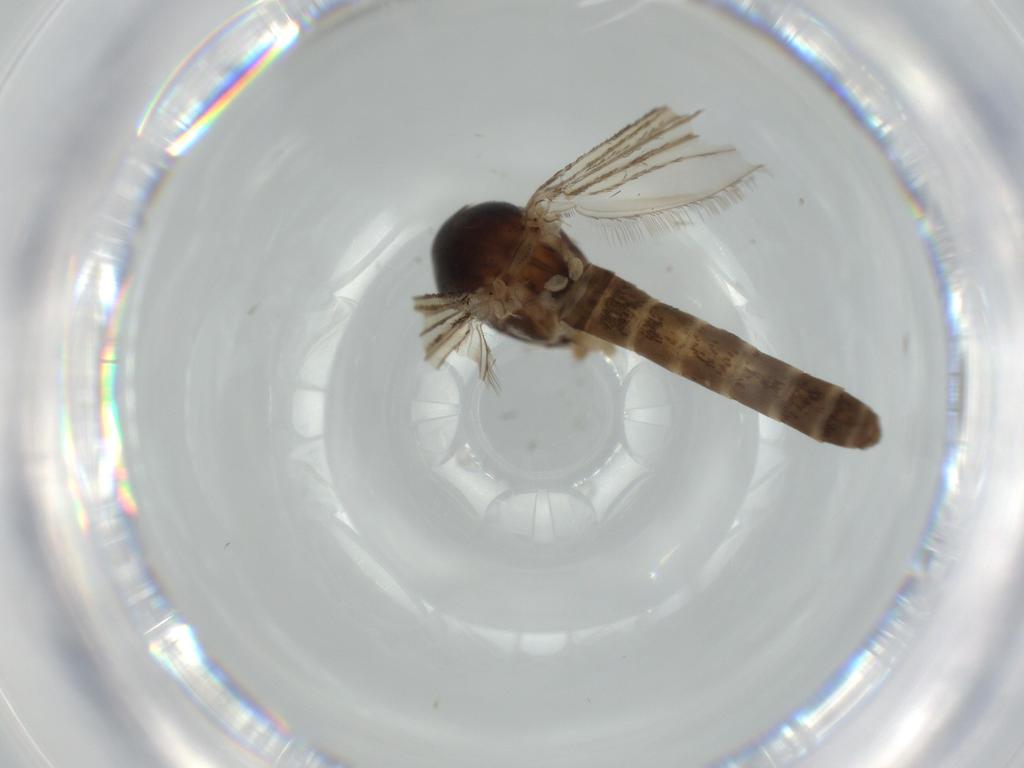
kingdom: Animalia
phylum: Arthropoda
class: Insecta
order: Diptera
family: Culicidae
